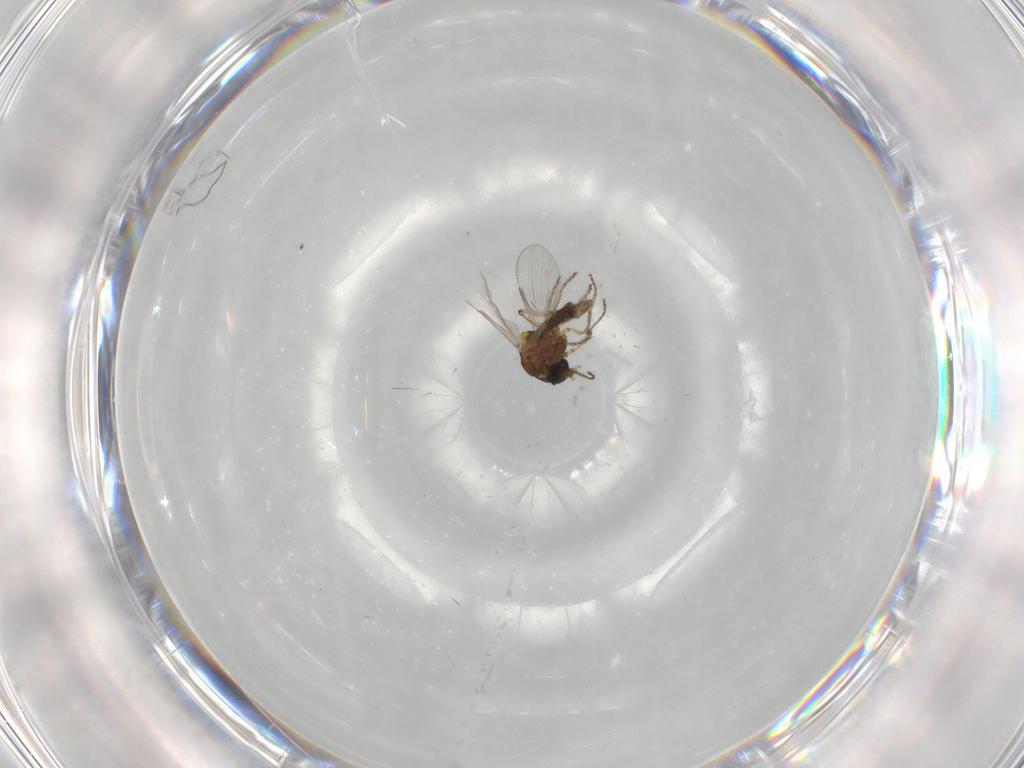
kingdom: Animalia
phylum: Arthropoda
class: Insecta
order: Diptera
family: Ceratopogonidae
